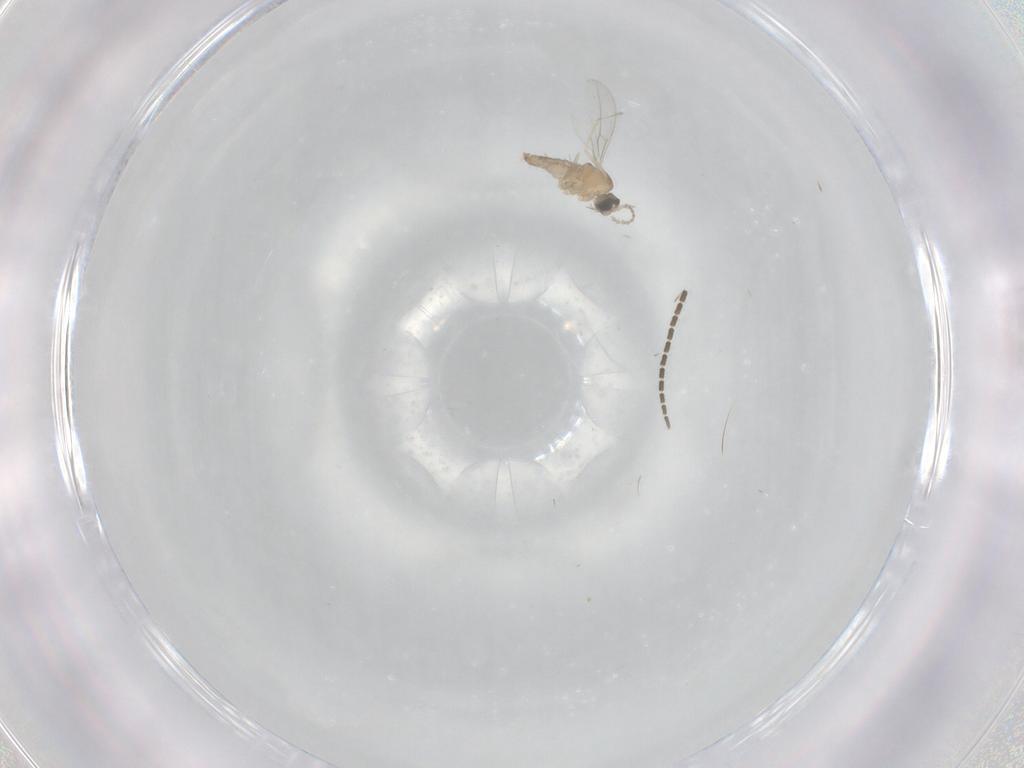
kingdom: Animalia
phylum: Arthropoda
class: Insecta
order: Diptera
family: Cecidomyiidae
